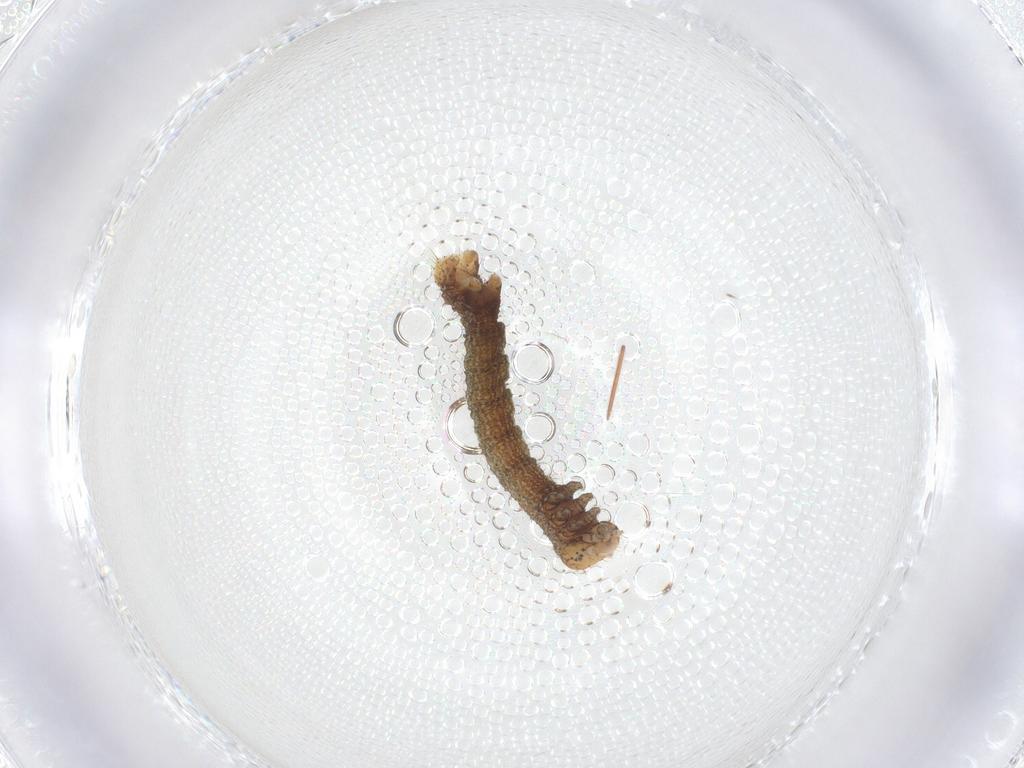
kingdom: Animalia
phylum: Arthropoda
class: Insecta
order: Lepidoptera
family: Geometridae
